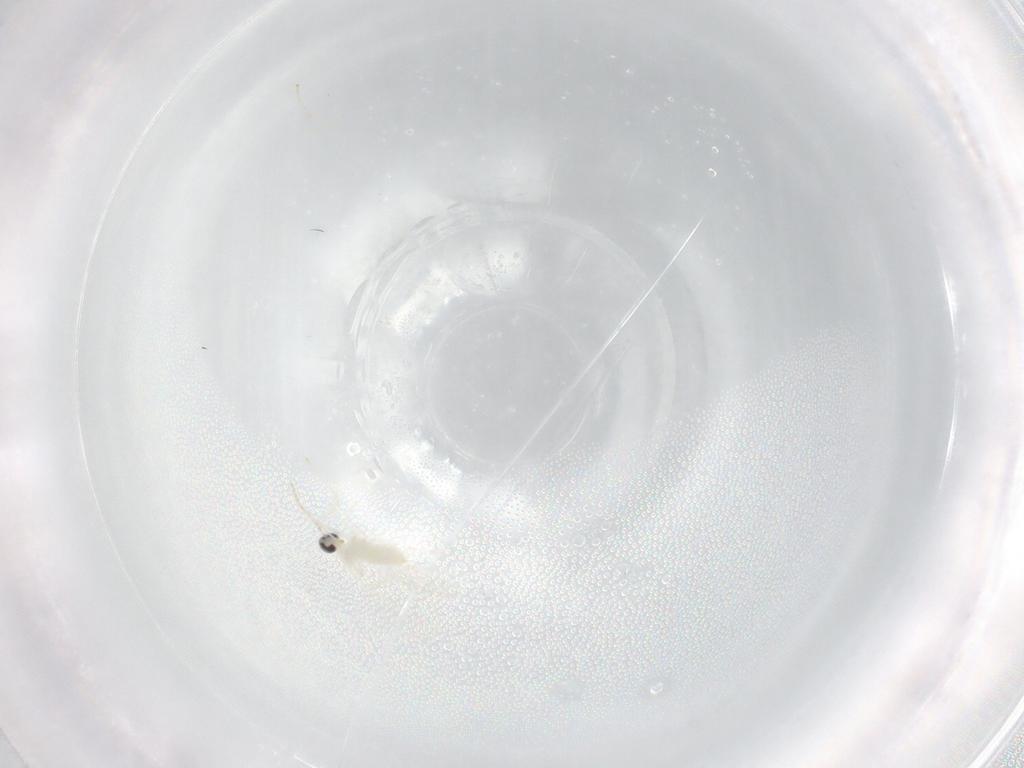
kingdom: Animalia
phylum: Arthropoda
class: Insecta
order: Diptera
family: Cecidomyiidae
